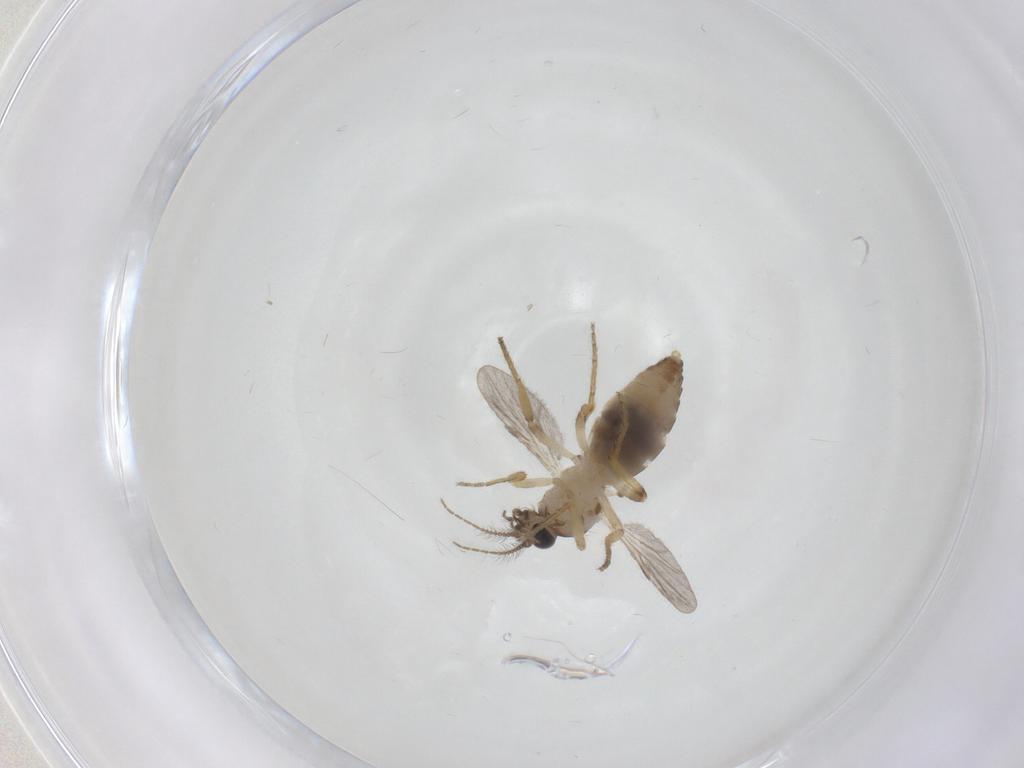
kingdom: Animalia
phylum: Arthropoda
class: Insecta
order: Diptera
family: Ceratopogonidae
